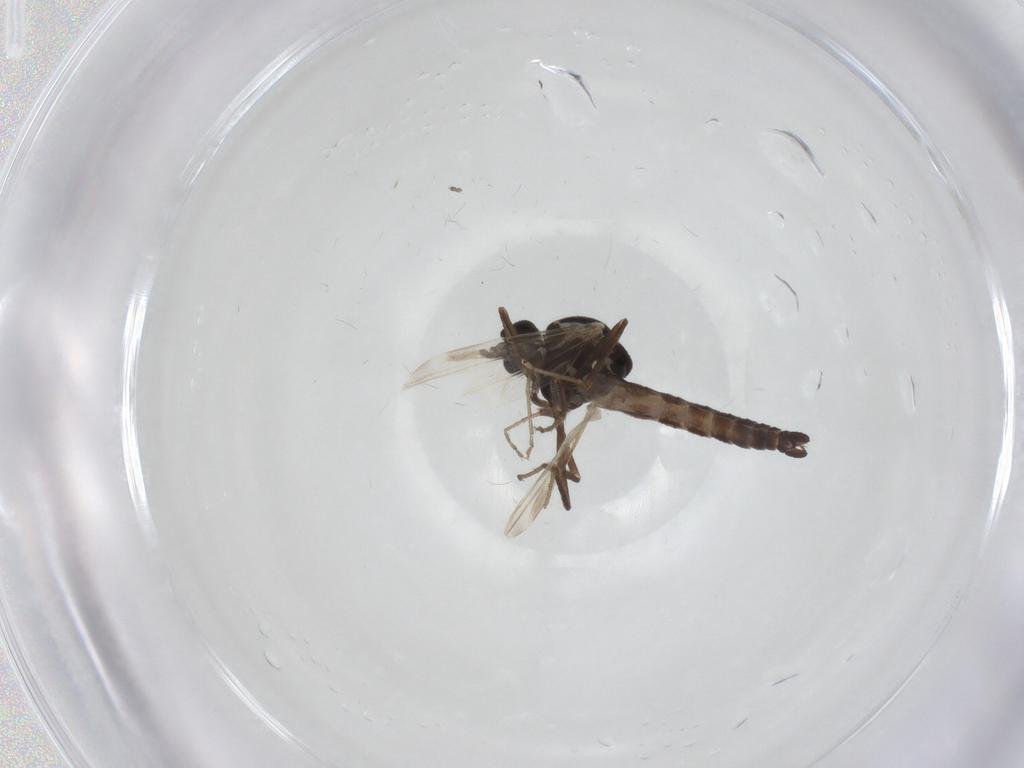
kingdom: Animalia
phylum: Arthropoda
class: Insecta
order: Diptera
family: Ceratopogonidae
